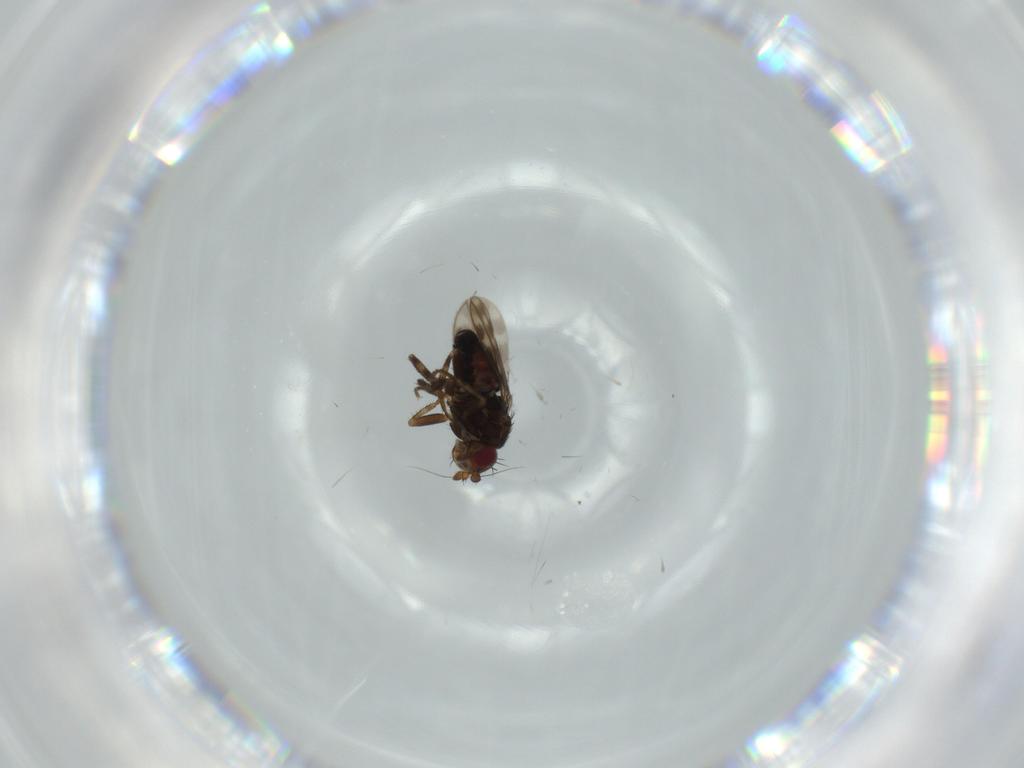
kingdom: Animalia
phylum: Arthropoda
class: Insecta
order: Diptera
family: Sphaeroceridae
